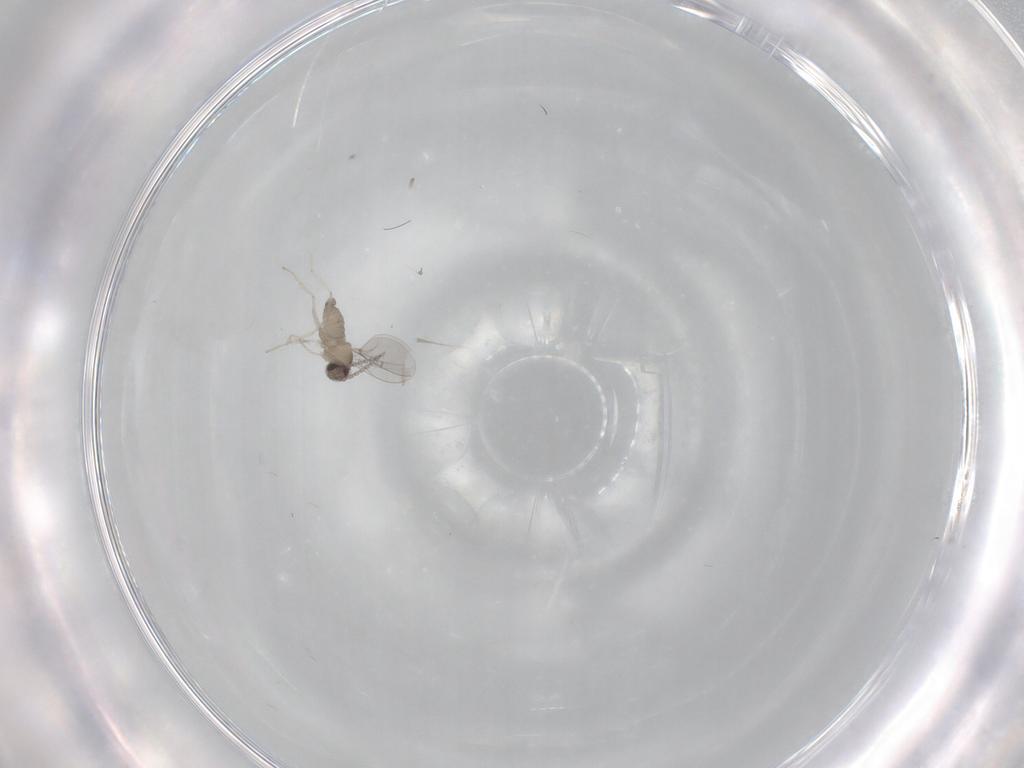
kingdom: Animalia
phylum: Arthropoda
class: Insecta
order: Diptera
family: Cecidomyiidae
